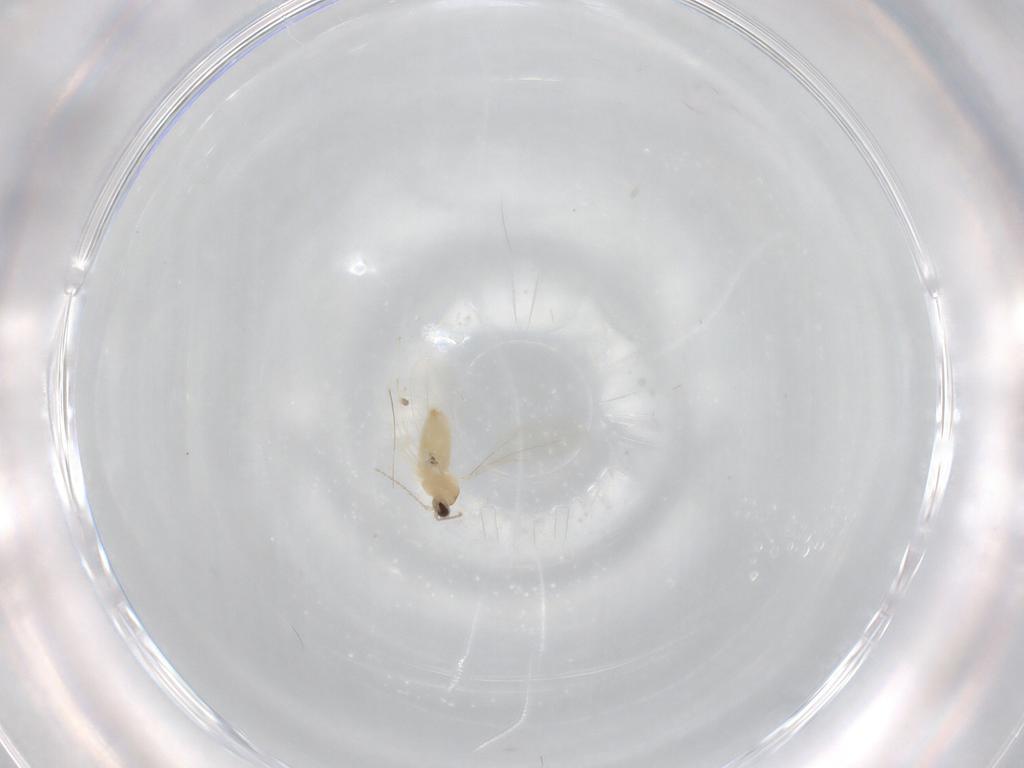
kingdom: Animalia
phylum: Arthropoda
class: Insecta
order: Diptera
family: Cecidomyiidae
